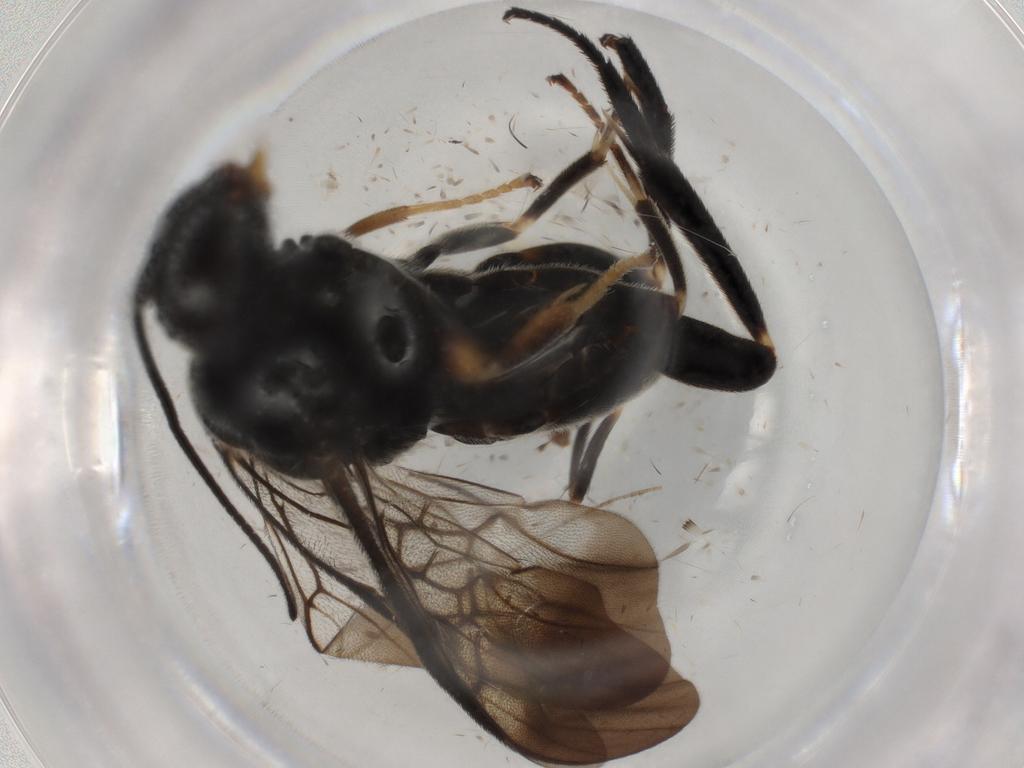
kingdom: Animalia
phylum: Arthropoda
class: Insecta
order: Hymenoptera
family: Braconidae
